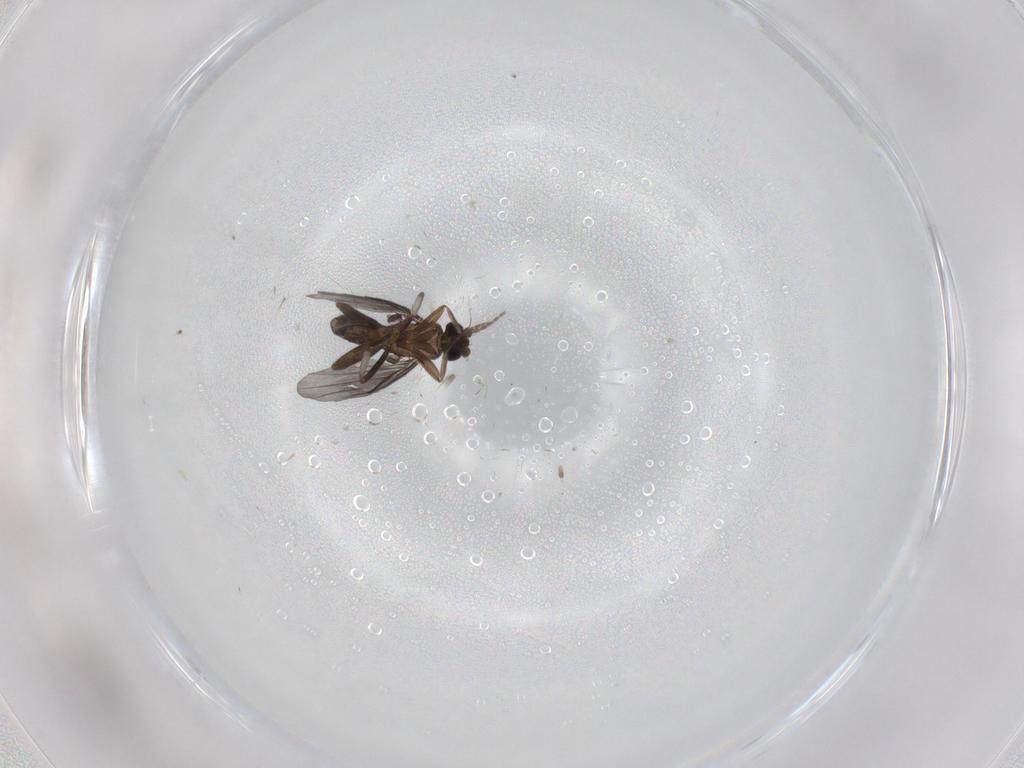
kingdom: Animalia
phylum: Arthropoda
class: Insecta
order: Diptera
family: Phoridae
